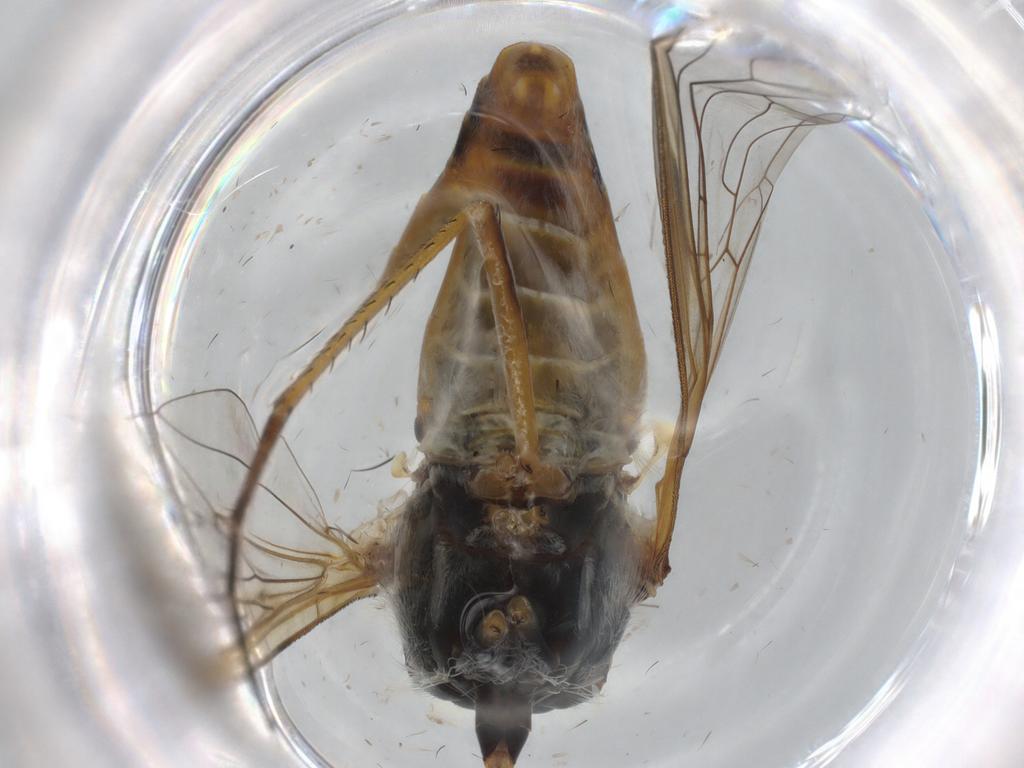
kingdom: Animalia
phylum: Arthropoda
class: Insecta
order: Diptera
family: Bombyliidae
